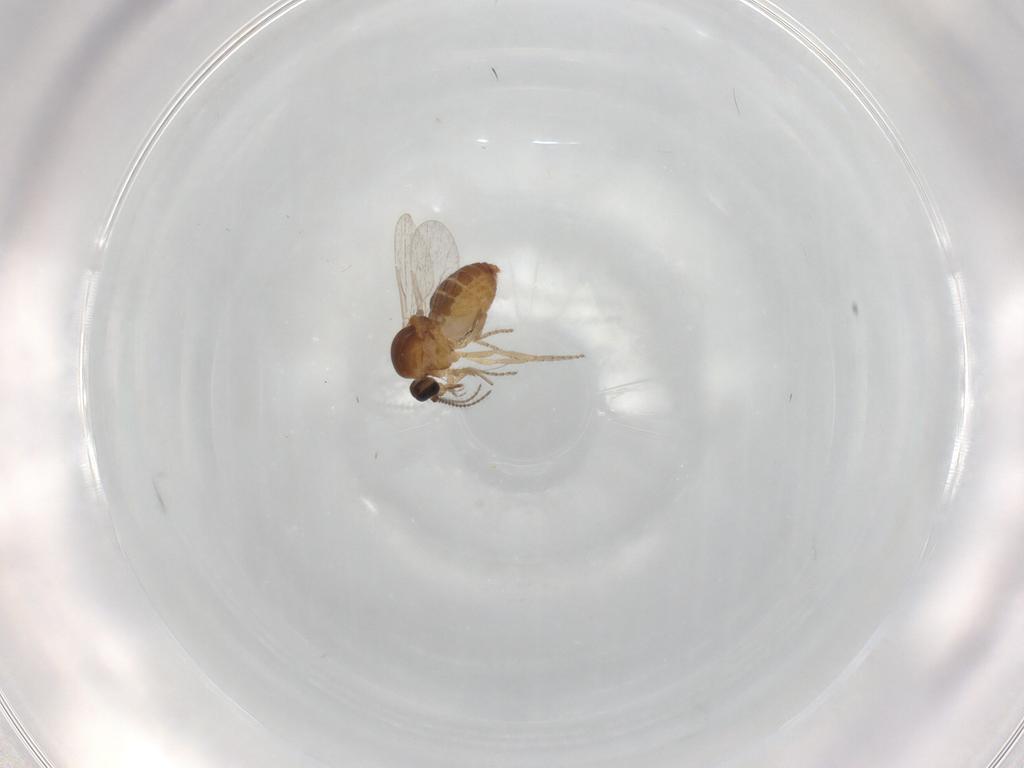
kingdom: Animalia
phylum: Arthropoda
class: Insecta
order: Diptera
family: Ceratopogonidae
